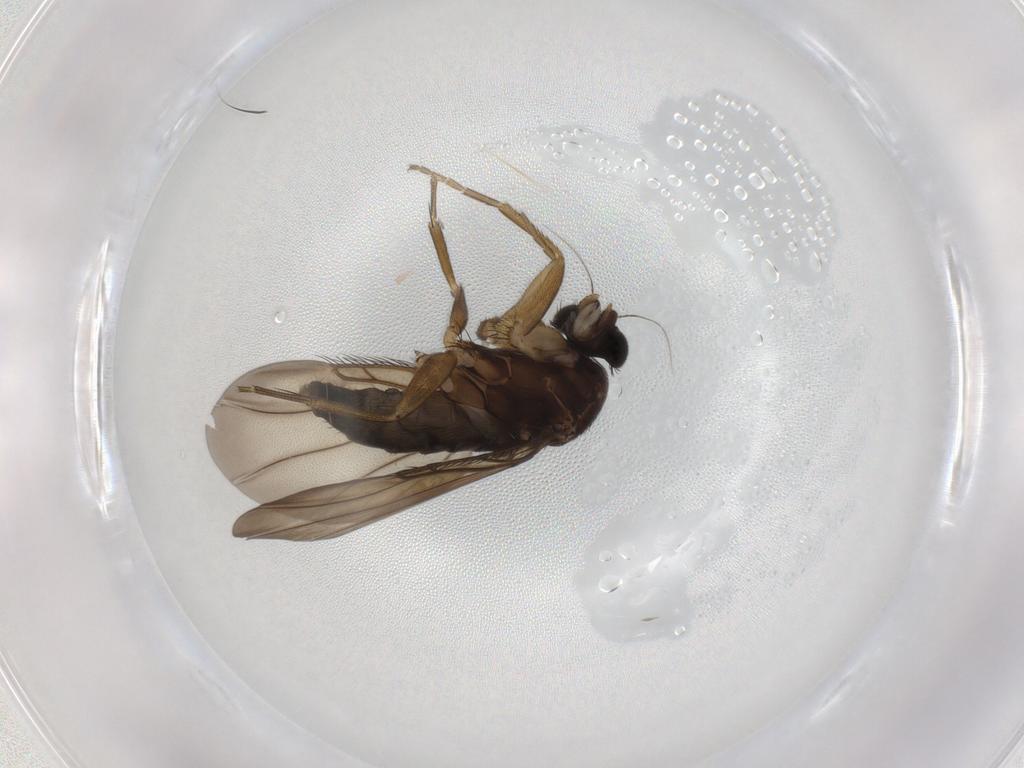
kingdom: Animalia
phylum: Arthropoda
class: Insecta
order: Diptera
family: Phoridae
